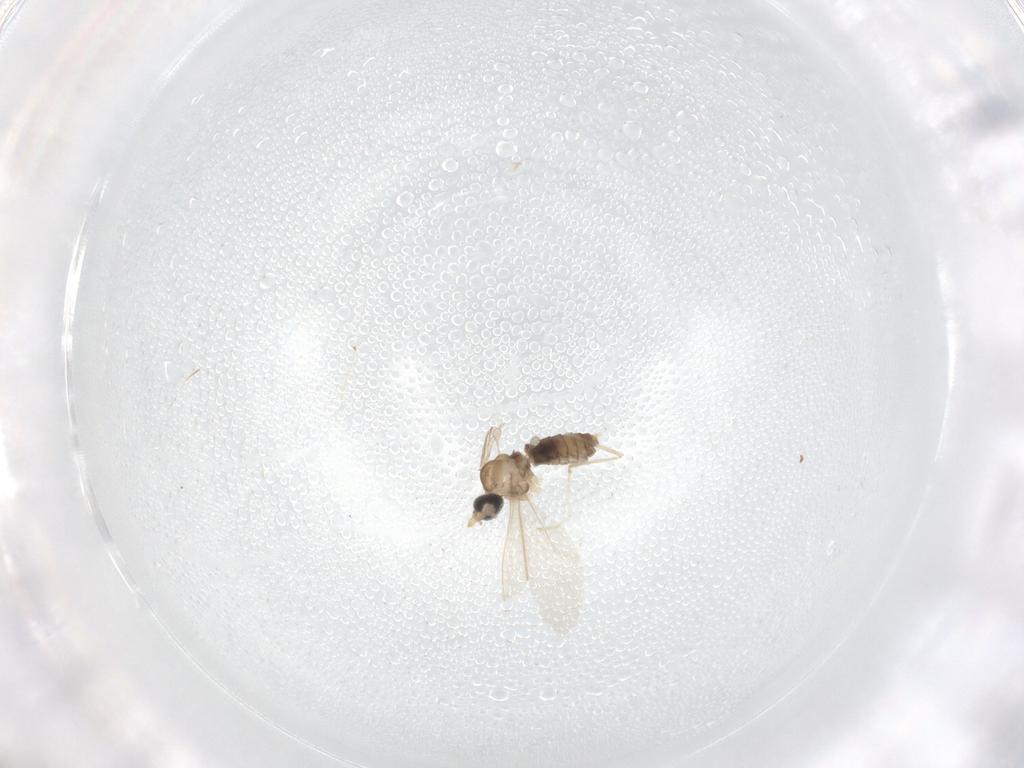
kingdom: Animalia
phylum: Arthropoda
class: Insecta
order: Diptera
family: Cecidomyiidae
